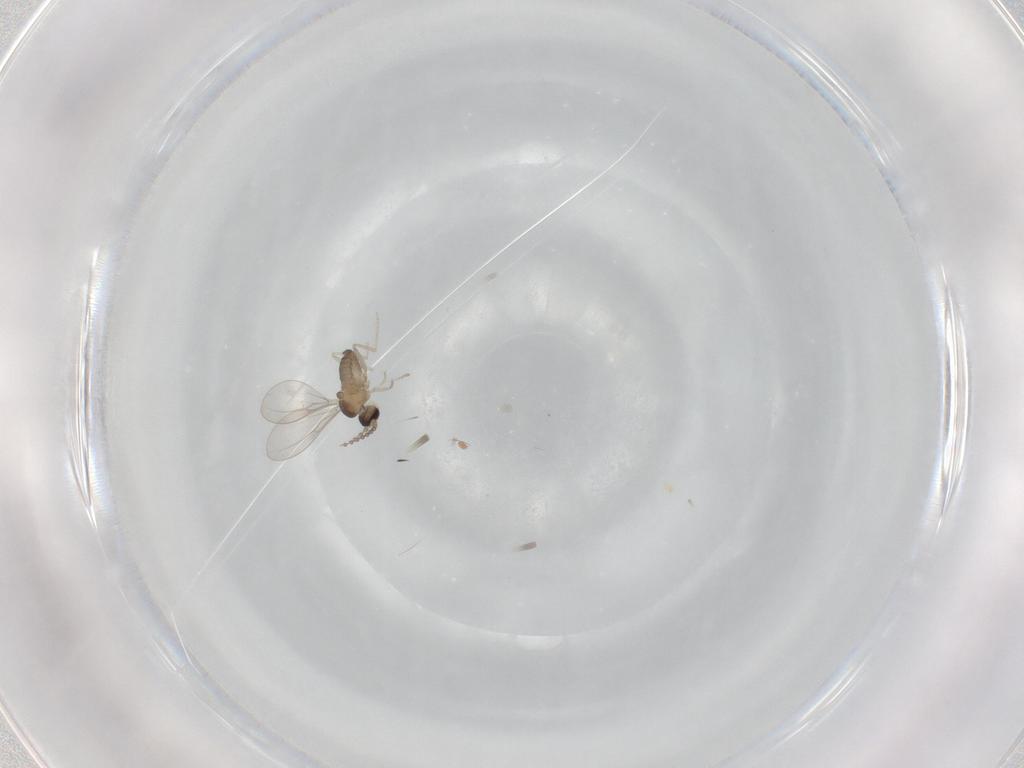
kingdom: Animalia
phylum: Arthropoda
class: Insecta
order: Diptera
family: Cecidomyiidae
